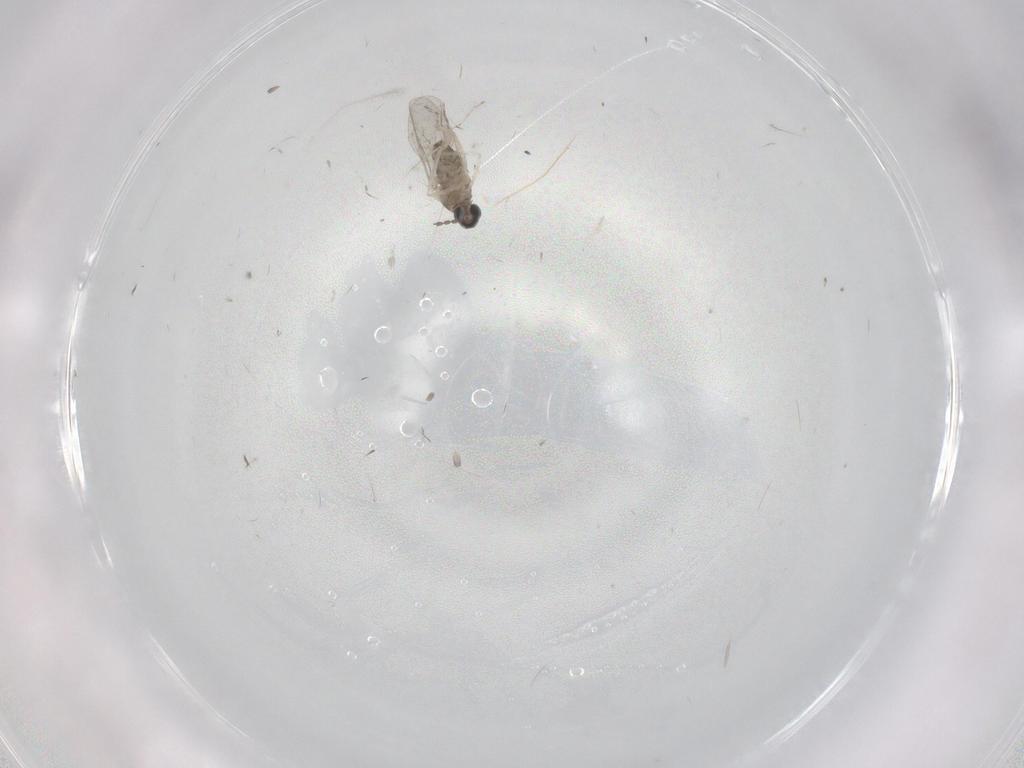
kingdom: Animalia
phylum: Arthropoda
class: Insecta
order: Diptera
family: Cecidomyiidae
